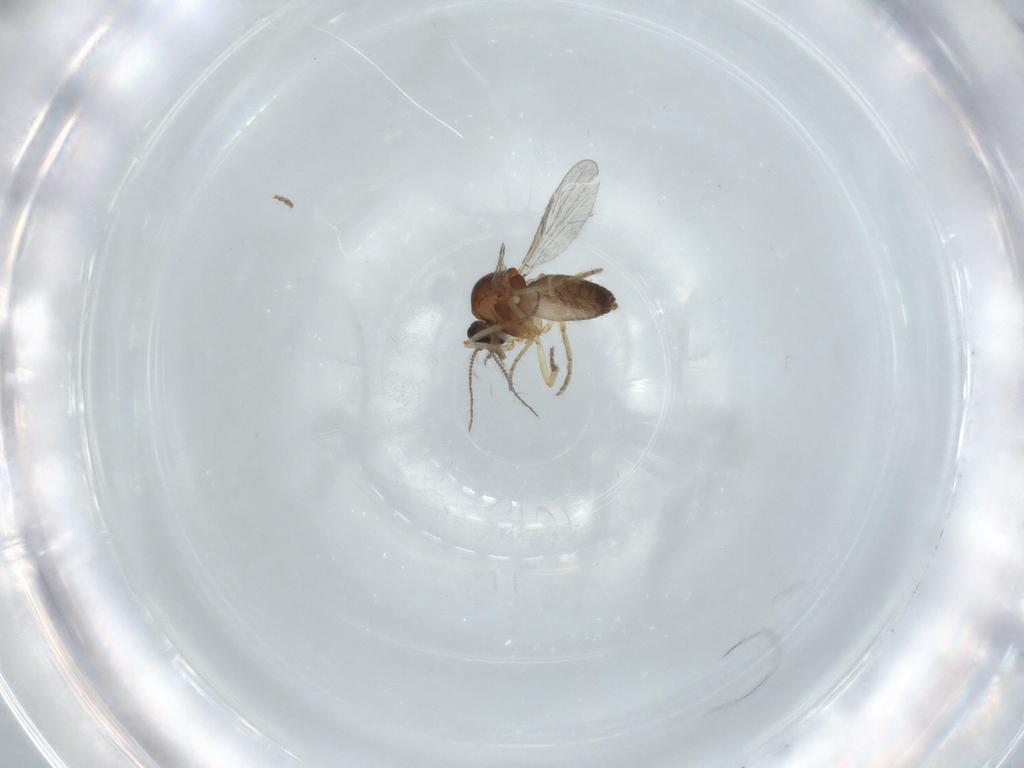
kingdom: Animalia
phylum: Arthropoda
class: Insecta
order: Diptera
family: Ceratopogonidae
